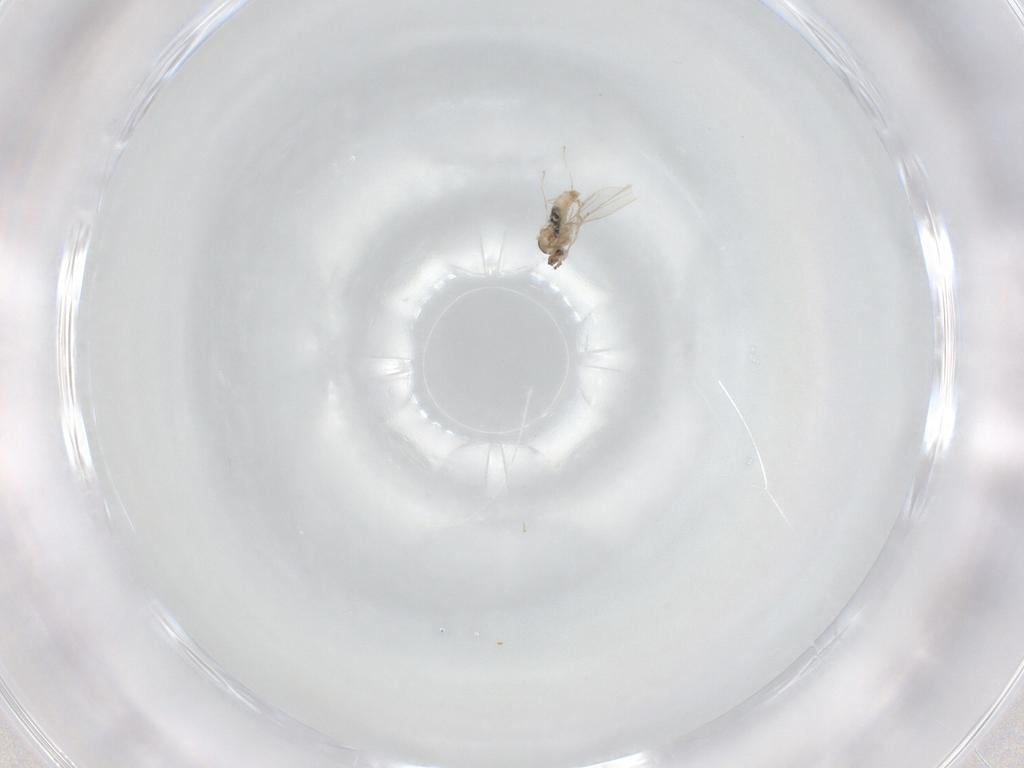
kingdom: Animalia
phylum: Arthropoda
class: Insecta
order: Diptera
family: Cecidomyiidae
